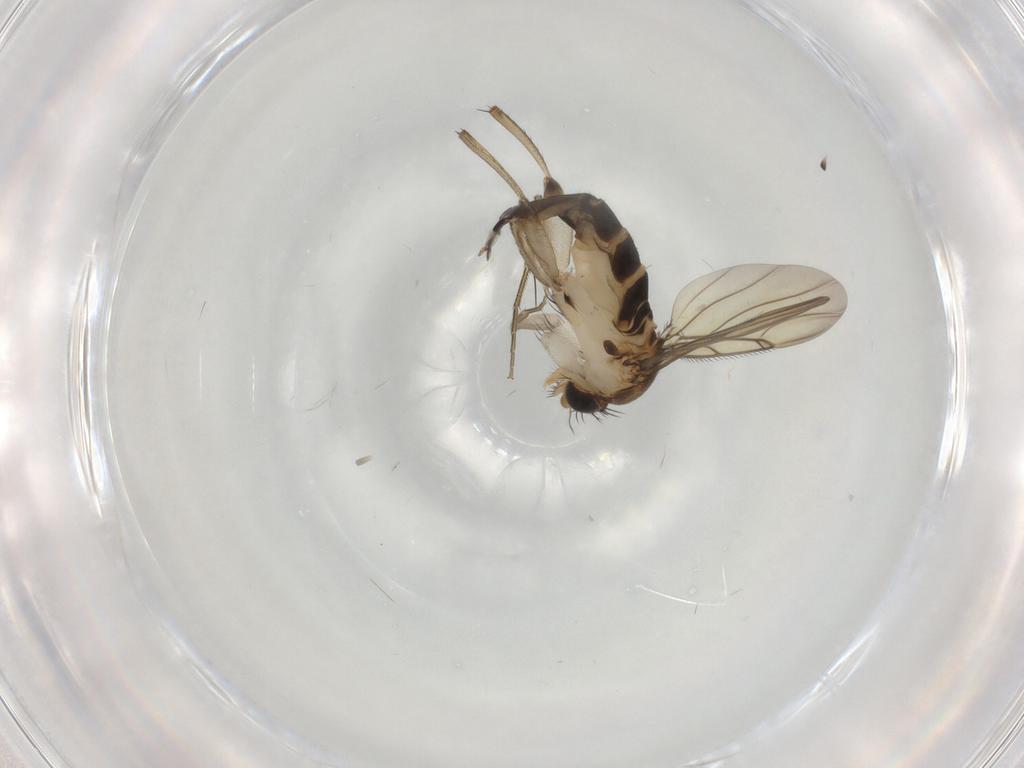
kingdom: Animalia
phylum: Arthropoda
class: Insecta
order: Diptera
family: Phoridae
